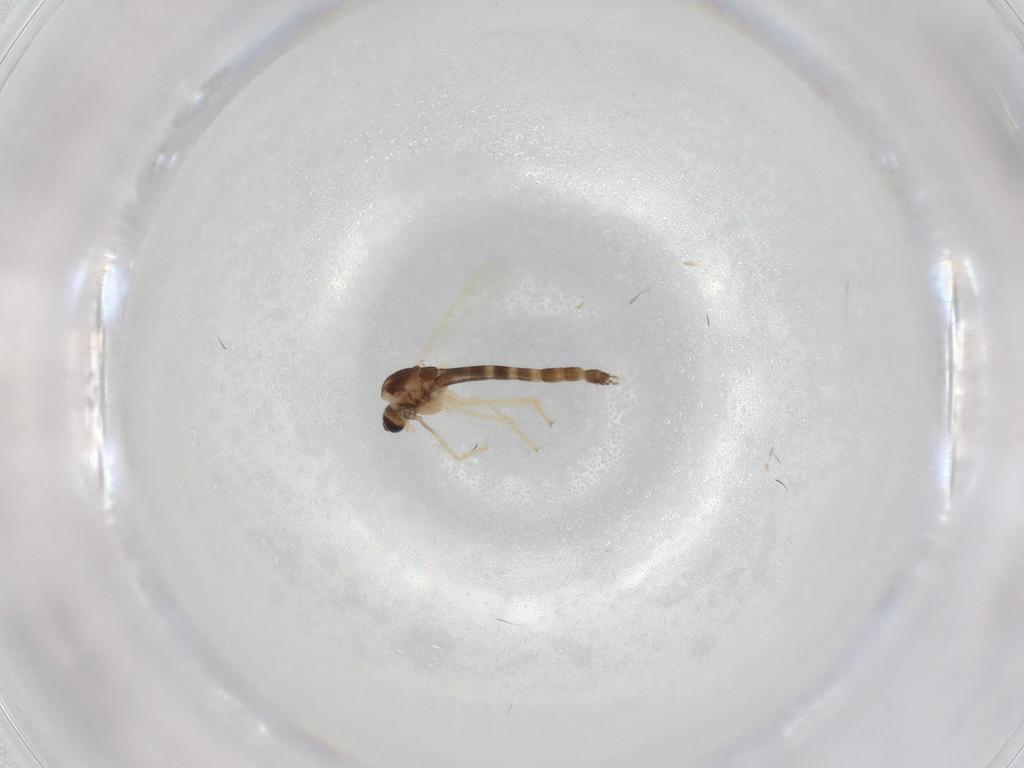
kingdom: Animalia
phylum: Arthropoda
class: Insecta
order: Diptera
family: Chironomidae
